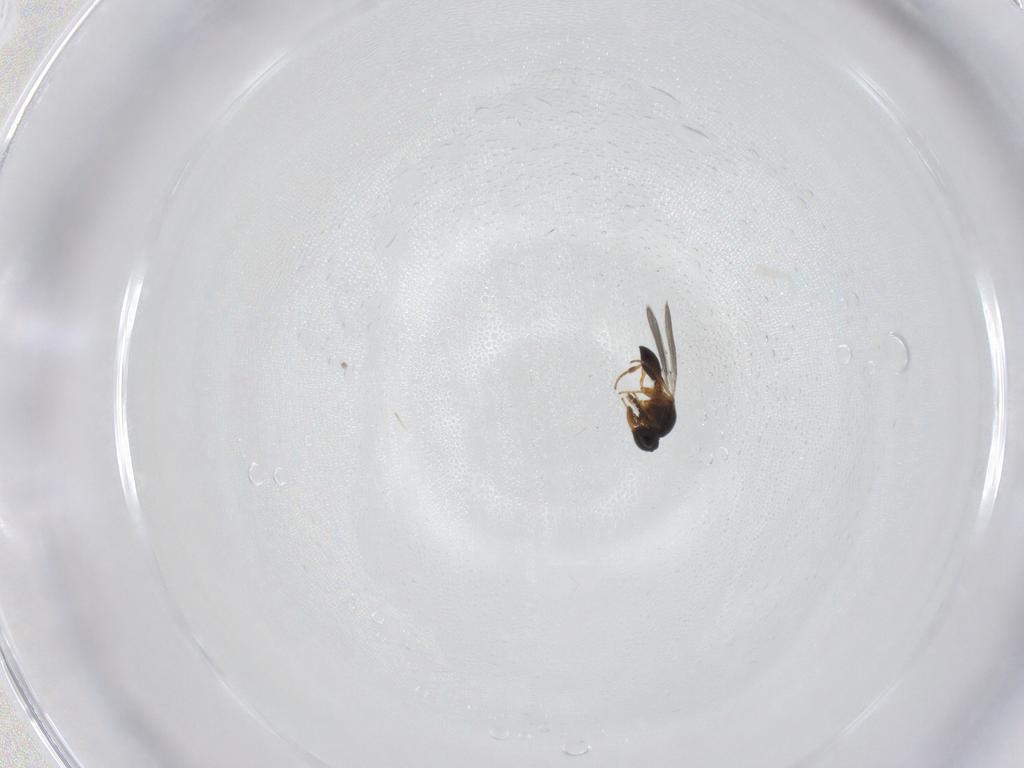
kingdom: Animalia
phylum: Arthropoda
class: Insecta
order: Hymenoptera
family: Platygastridae
